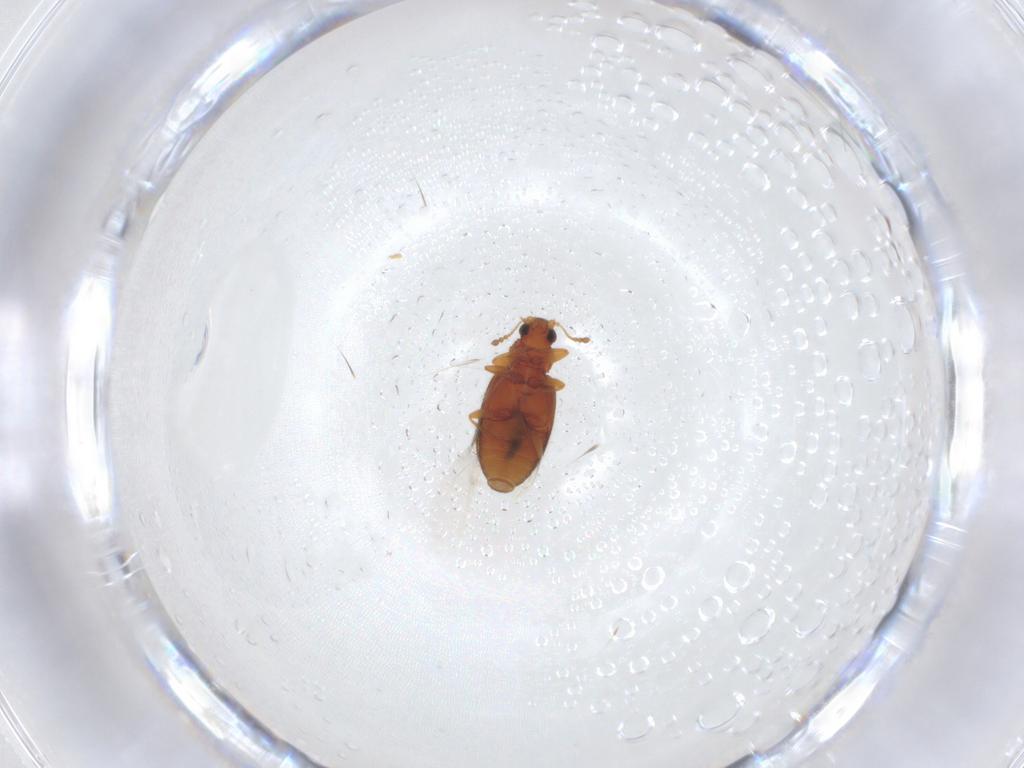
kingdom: Animalia
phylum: Arthropoda
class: Insecta
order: Coleoptera
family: Latridiidae
